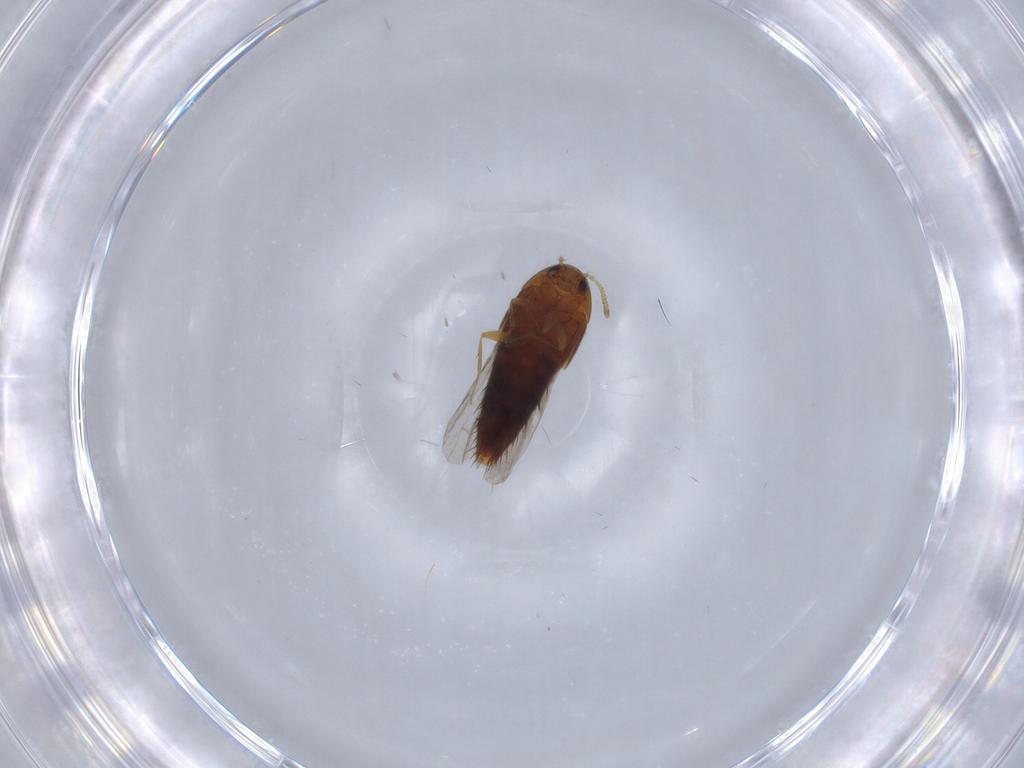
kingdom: Animalia
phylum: Arthropoda
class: Insecta
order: Coleoptera
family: Staphylinidae
